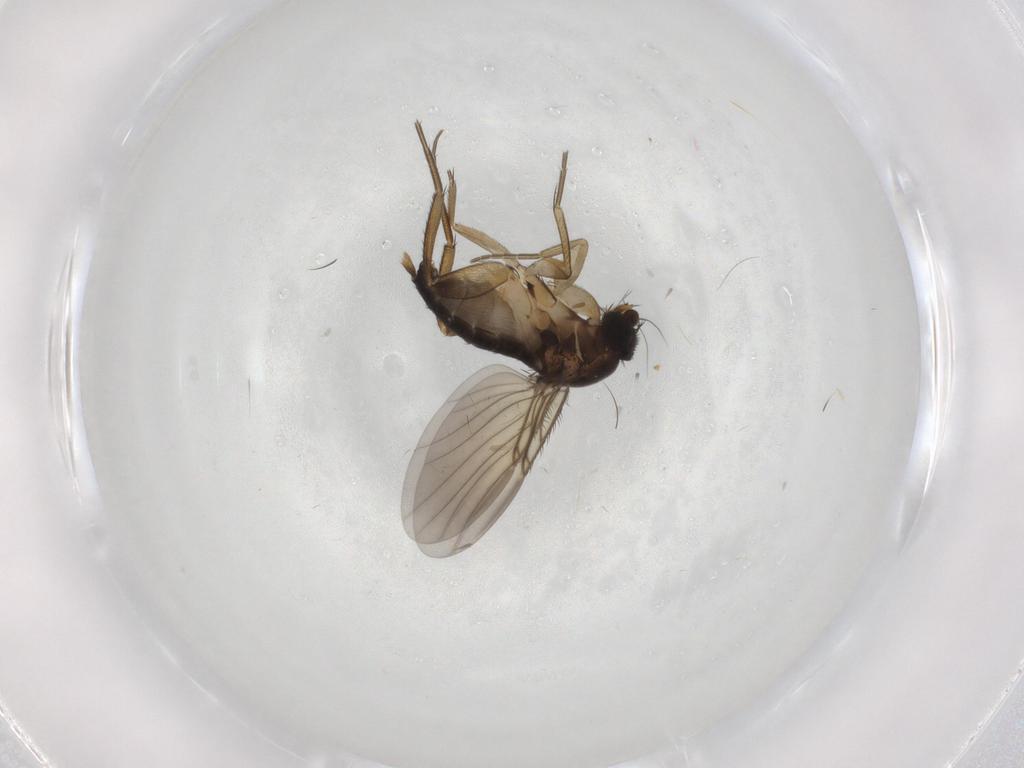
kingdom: Animalia
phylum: Arthropoda
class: Insecta
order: Diptera
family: Phoridae
